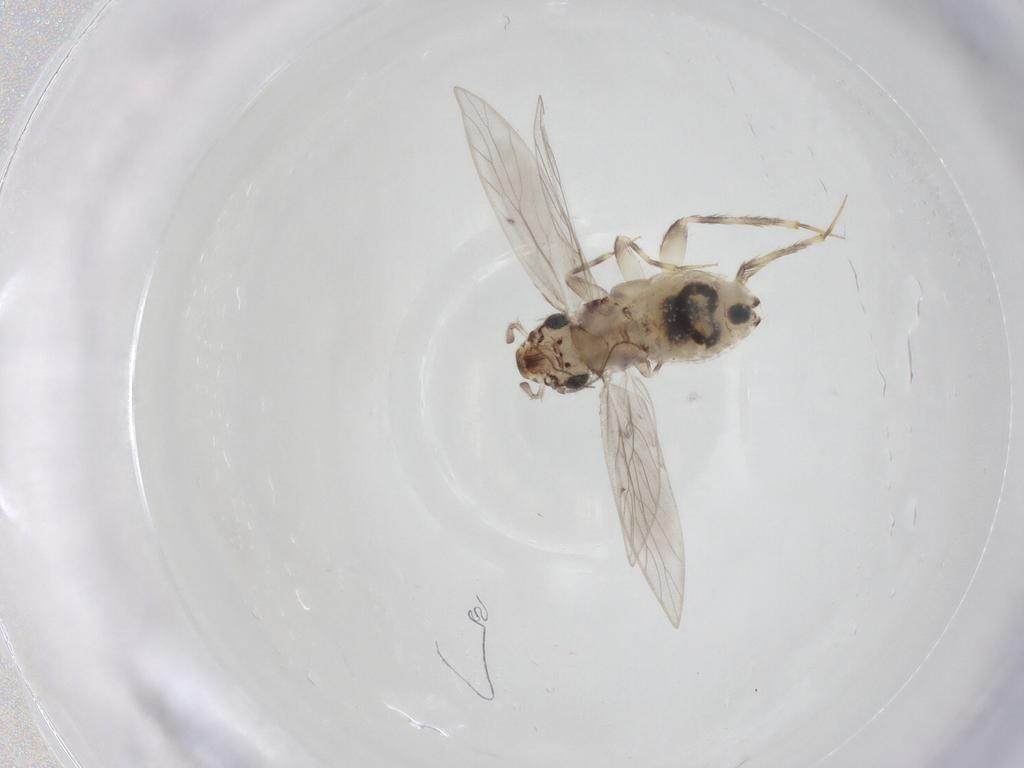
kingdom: Animalia
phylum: Arthropoda
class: Insecta
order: Psocodea
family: Lepidopsocidae
